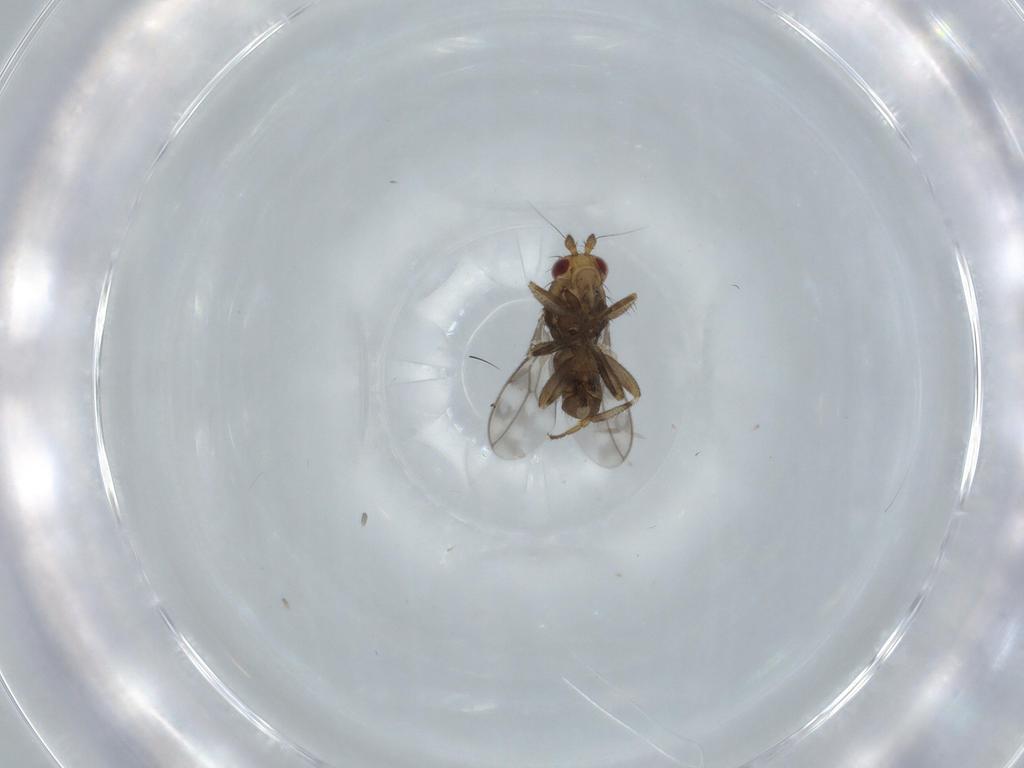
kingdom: Animalia
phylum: Arthropoda
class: Insecta
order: Diptera
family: Sphaeroceridae
